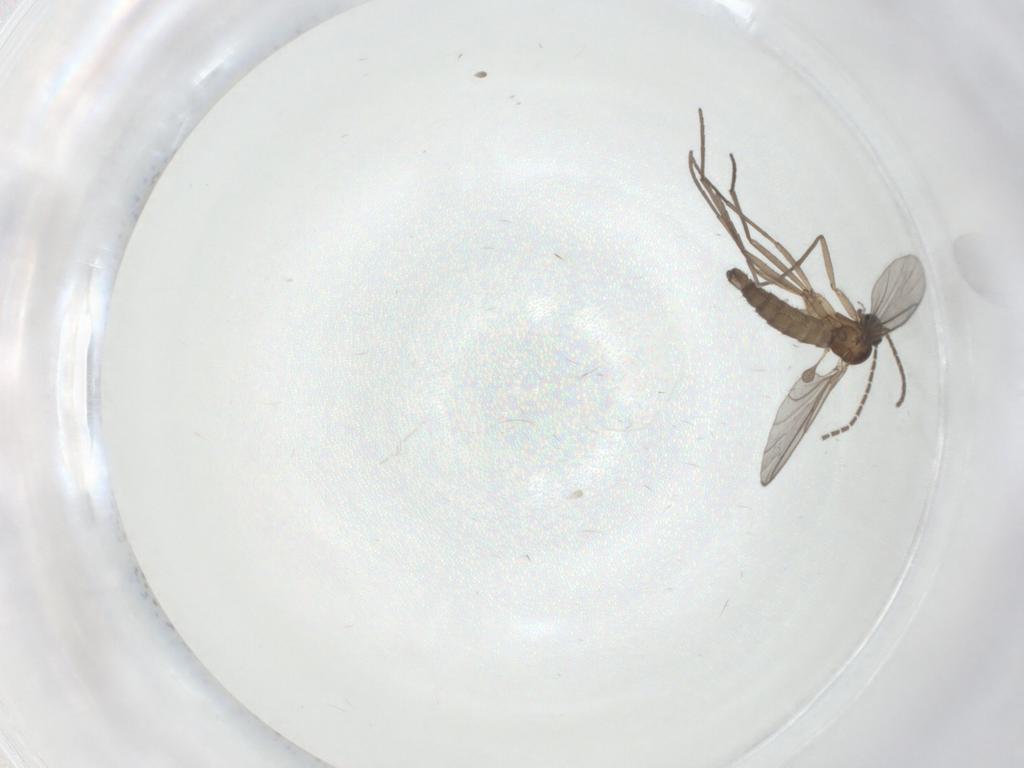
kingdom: Animalia
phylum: Arthropoda
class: Insecta
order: Diptera
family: Sciaridae
